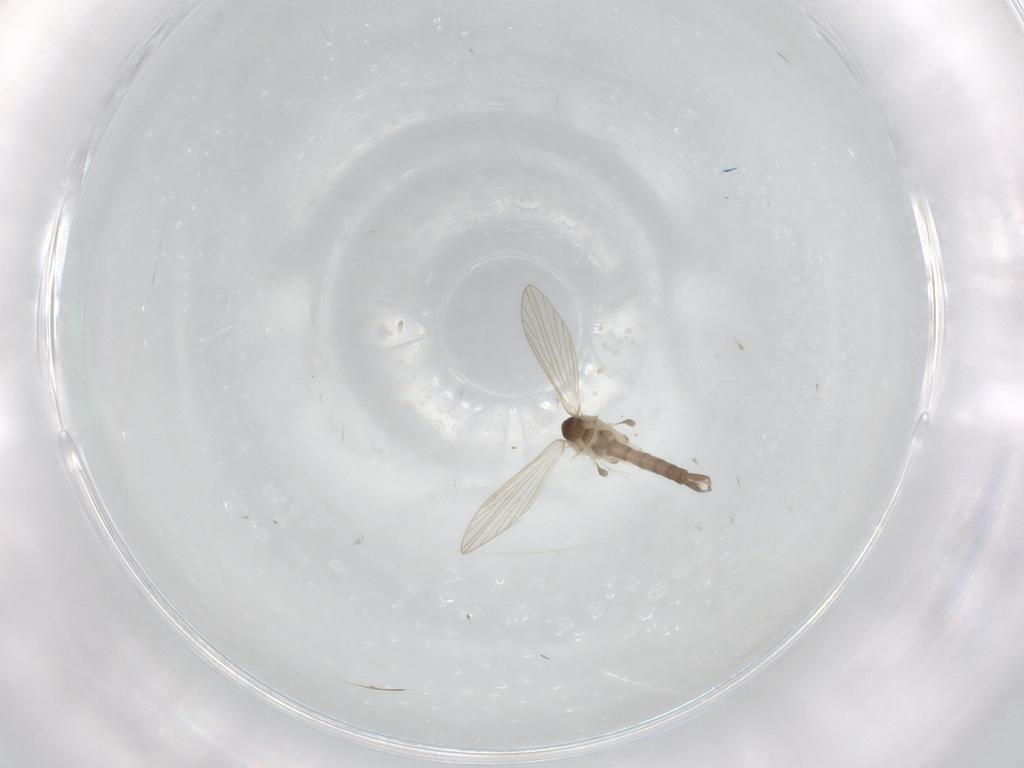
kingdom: Animalia
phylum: Arthropoda
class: Insecta
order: Diptera
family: Psychodidae
